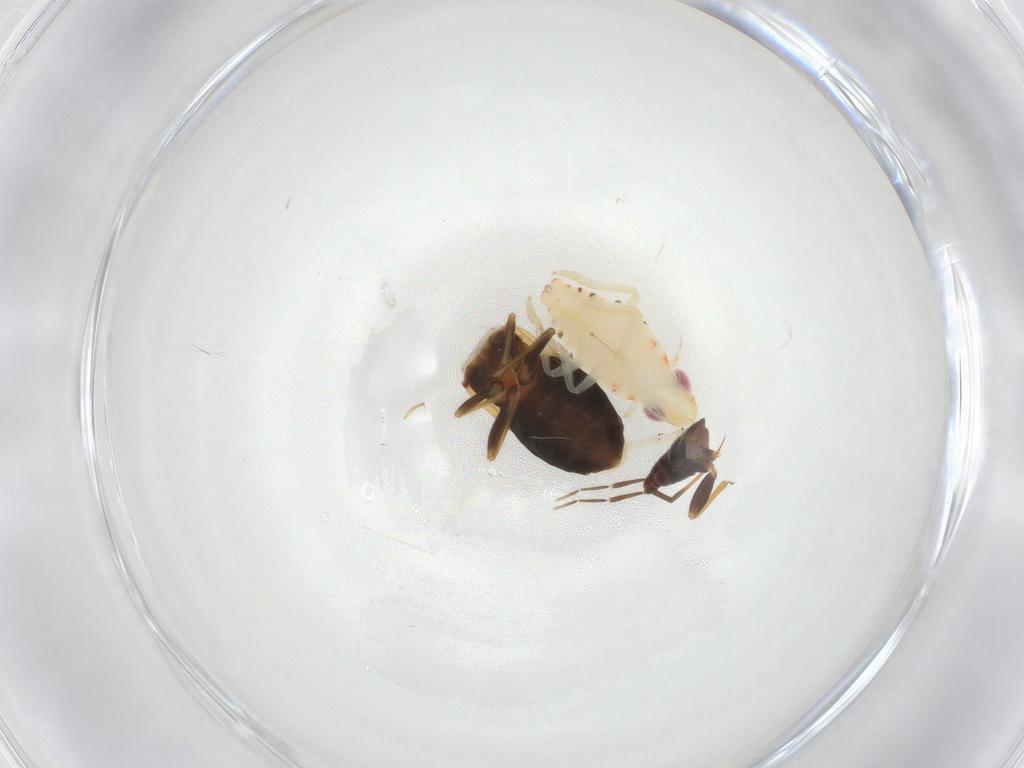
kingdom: Animalia
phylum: Arthropoda
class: Insecta
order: Hemiptera
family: Tropiduchidae
